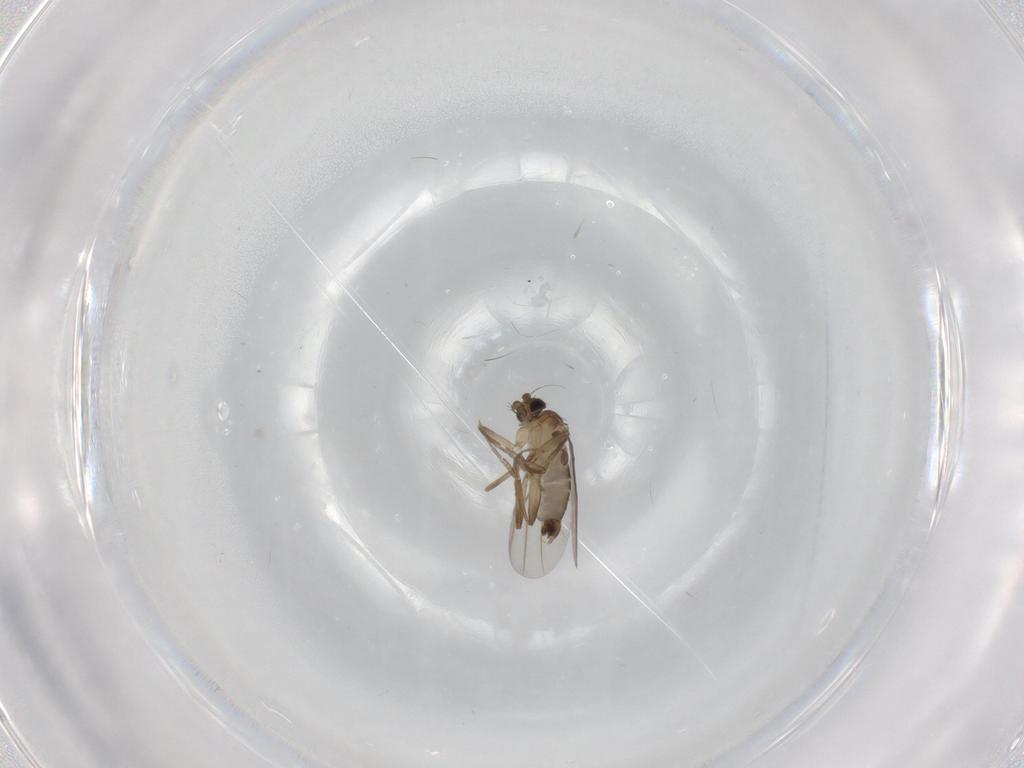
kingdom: Animalia
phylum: Arthropoda
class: Insecta
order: Diptera
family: Phoridae
